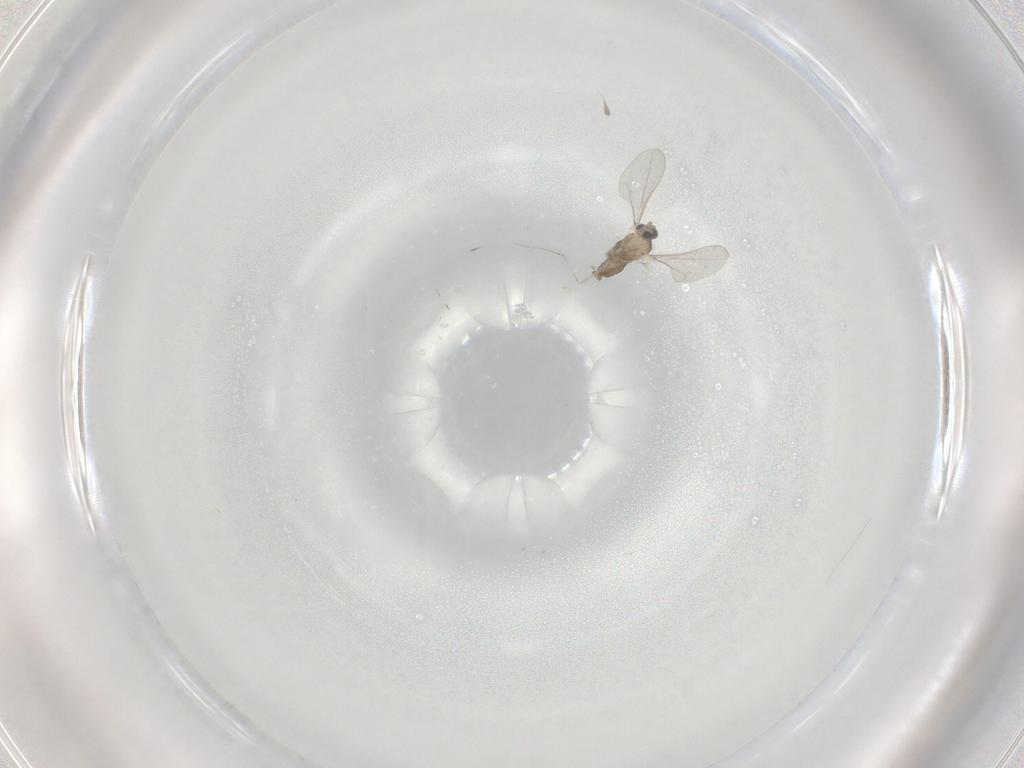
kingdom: Animalia
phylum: Arthropoda
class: Insecta
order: Diptera
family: Cecidomyiidae
